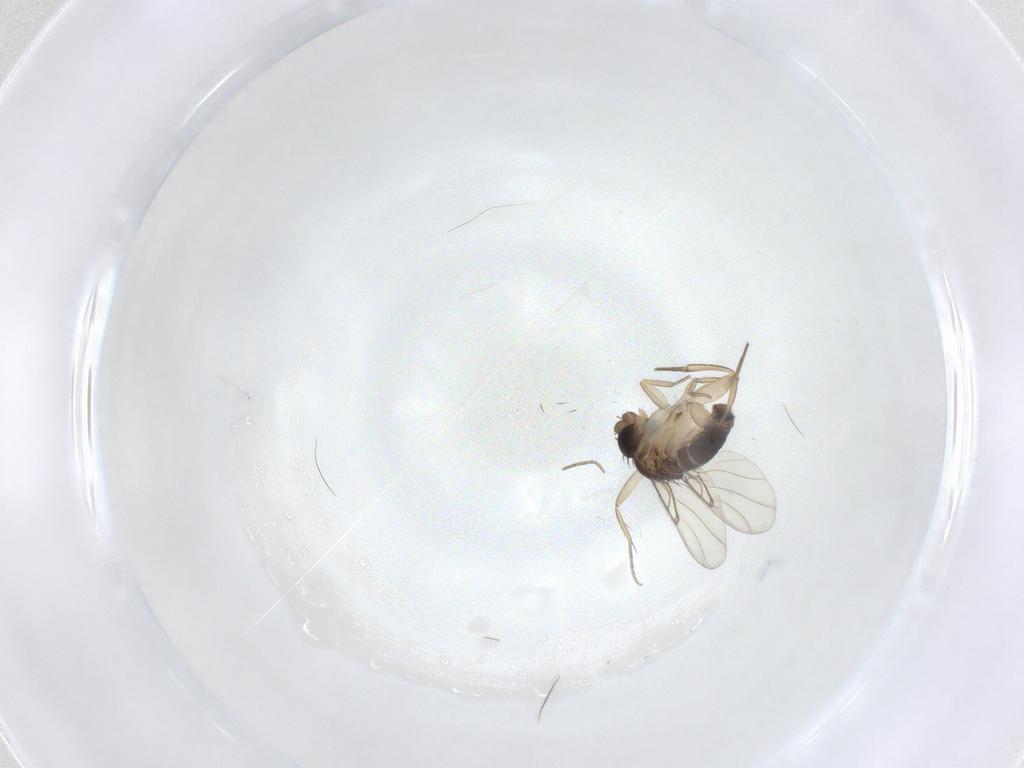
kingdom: Animalia
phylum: Arthropoda
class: Insecta
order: Diptera
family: Phoridae
